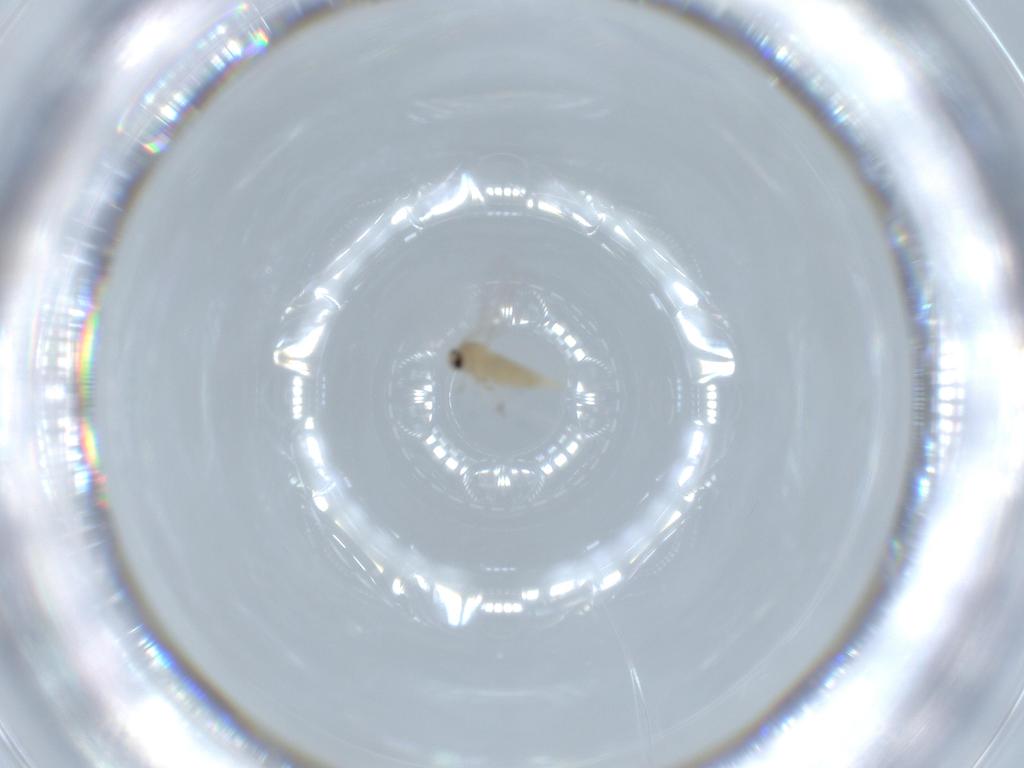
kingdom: Animalia
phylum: Arthropoda
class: Insecta
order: Diptera
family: Cecidomyiidae
